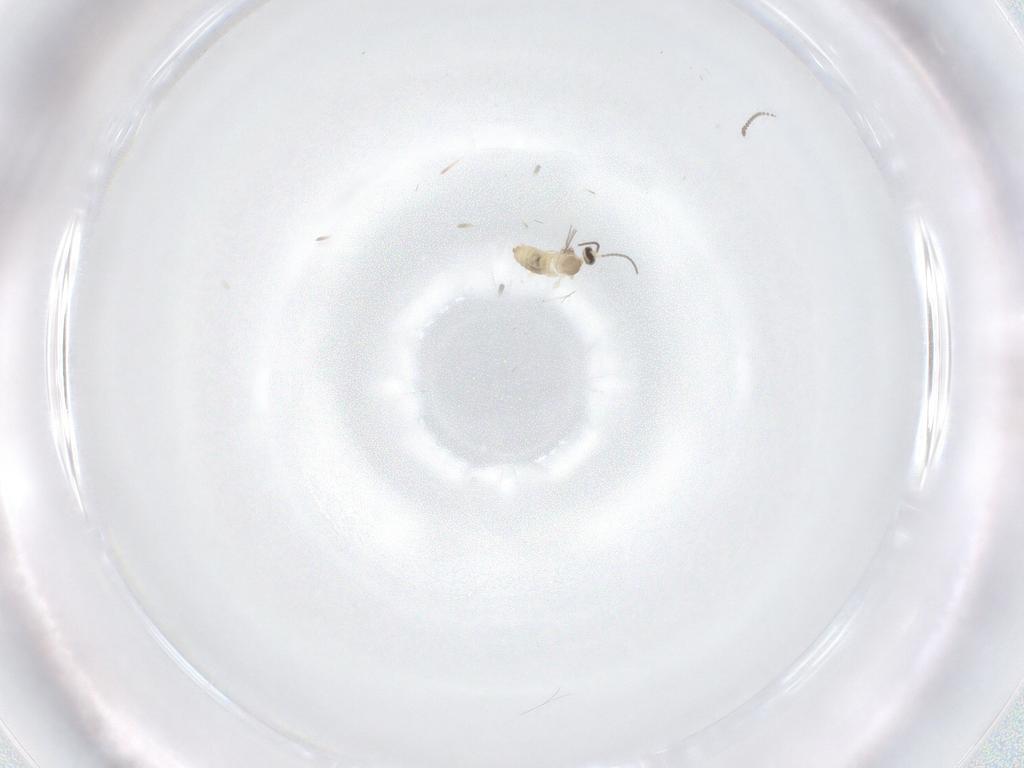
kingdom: Animalia
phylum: Arthropoda
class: Insecta
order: Diptera
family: Cecidomyiidae
